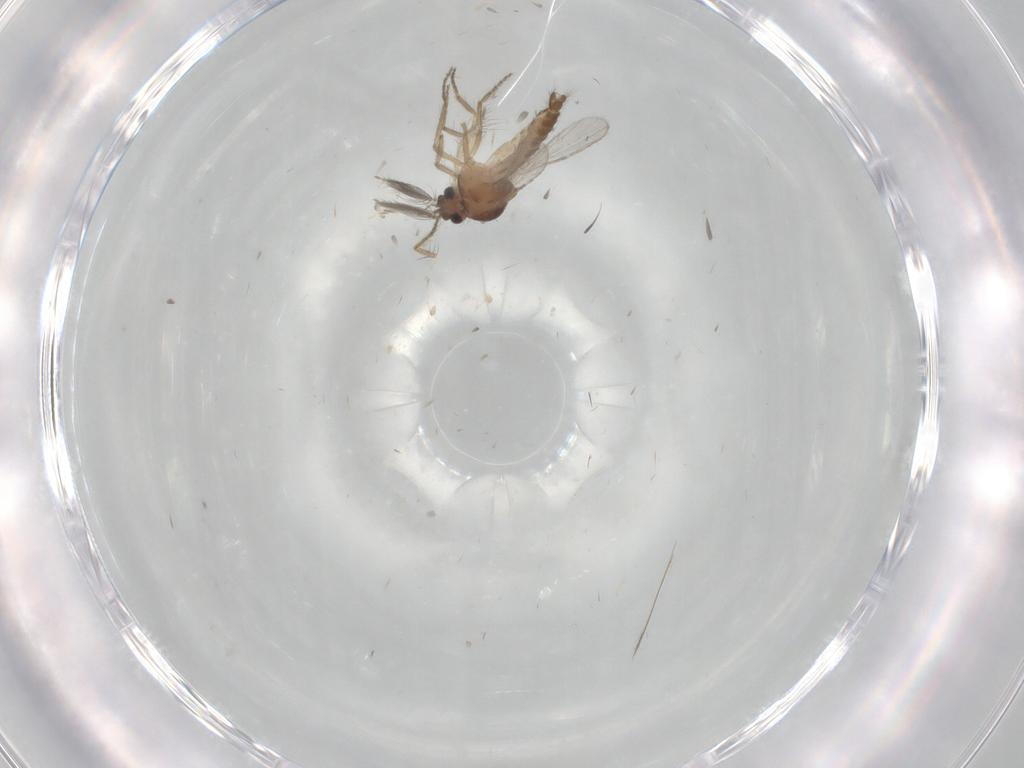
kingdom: Animalia
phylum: Arthropoda
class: Insecta
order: Diptera
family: Ceratopogonidae
